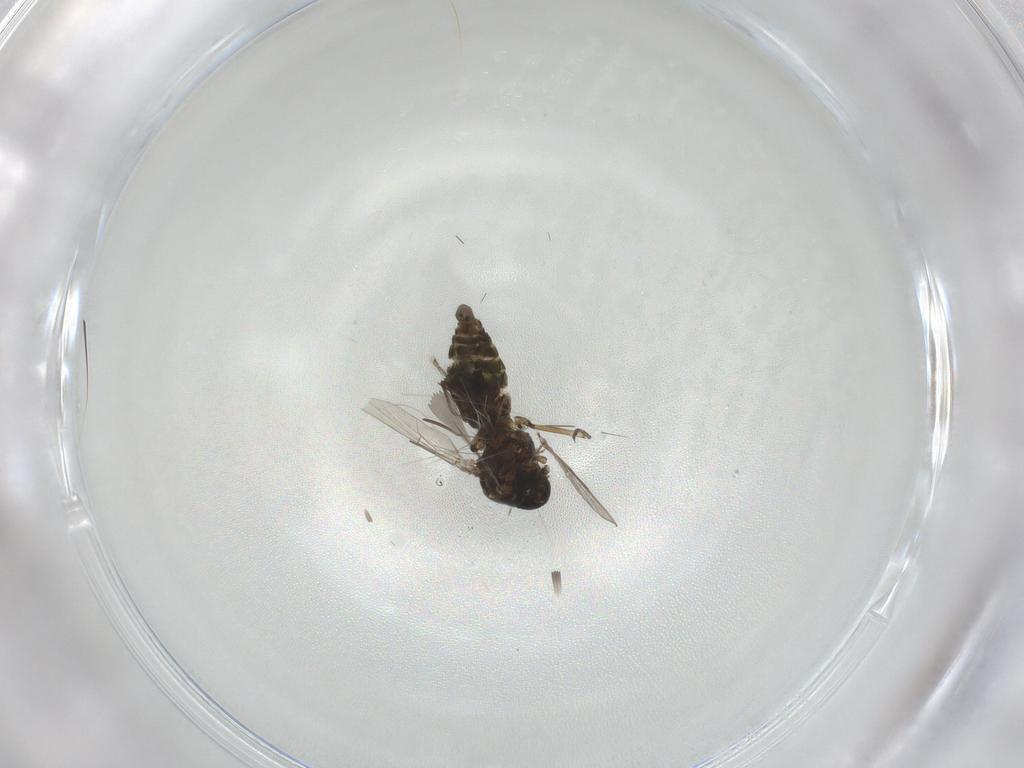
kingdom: Animalia
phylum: Arthropoda
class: Insecta
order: Diptera
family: Ceratopogonidae
